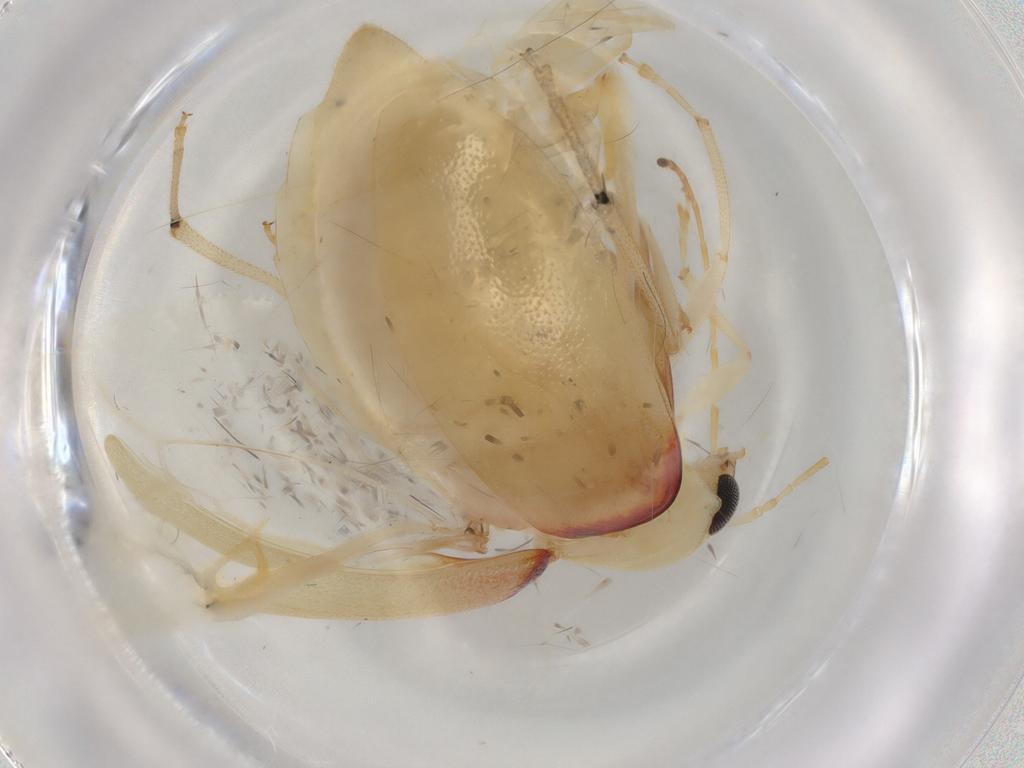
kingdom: Animalia
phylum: Arthropoda
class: Insecta
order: Coleoptera
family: Chrysomelidae
